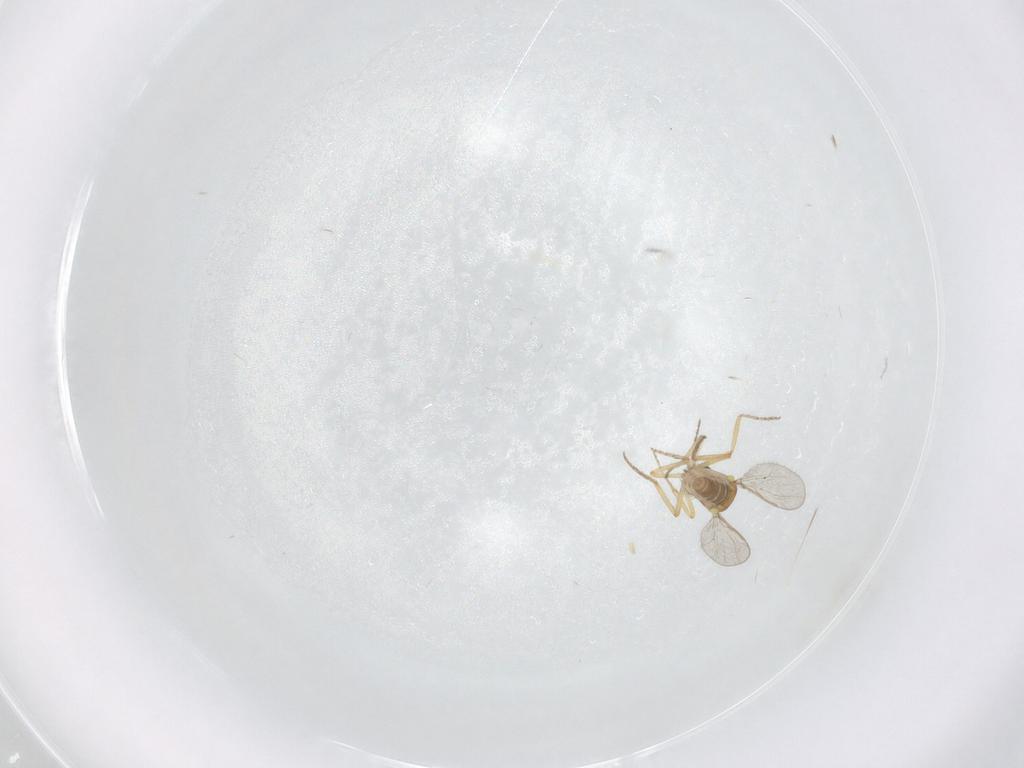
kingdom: Animalia
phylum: Arthropoda
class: Insecta
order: Diptera
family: Ceratopogonidae
